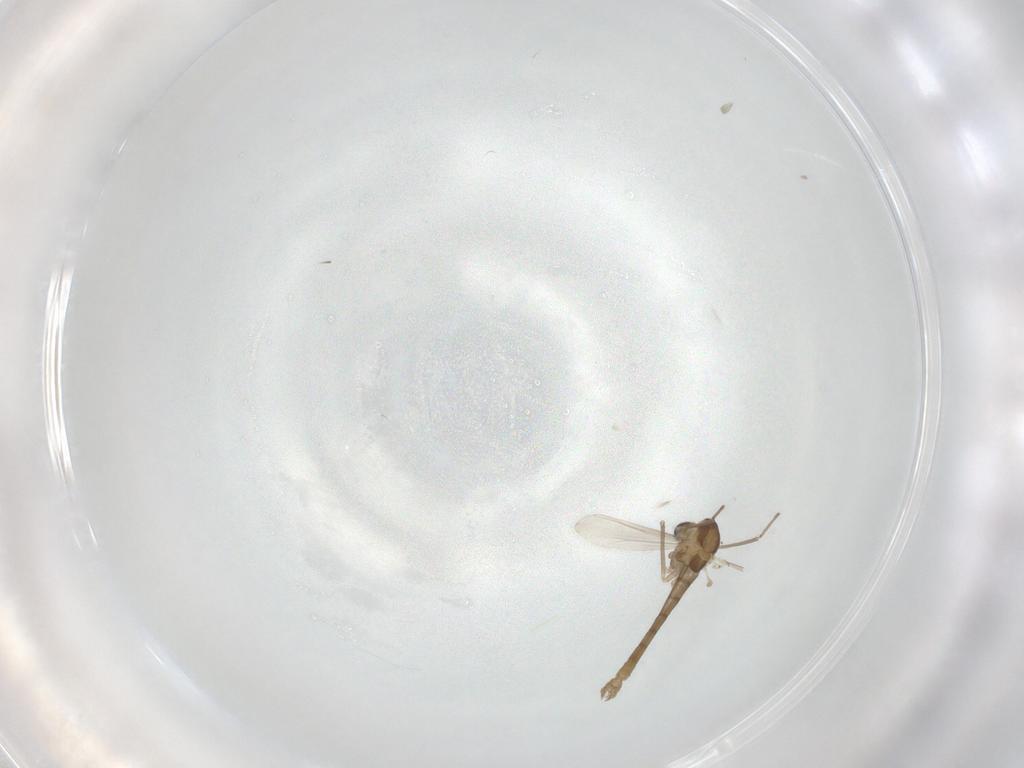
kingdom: Animalia
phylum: Arthropoda
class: Insecta
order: Diptera
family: Chironomidae
